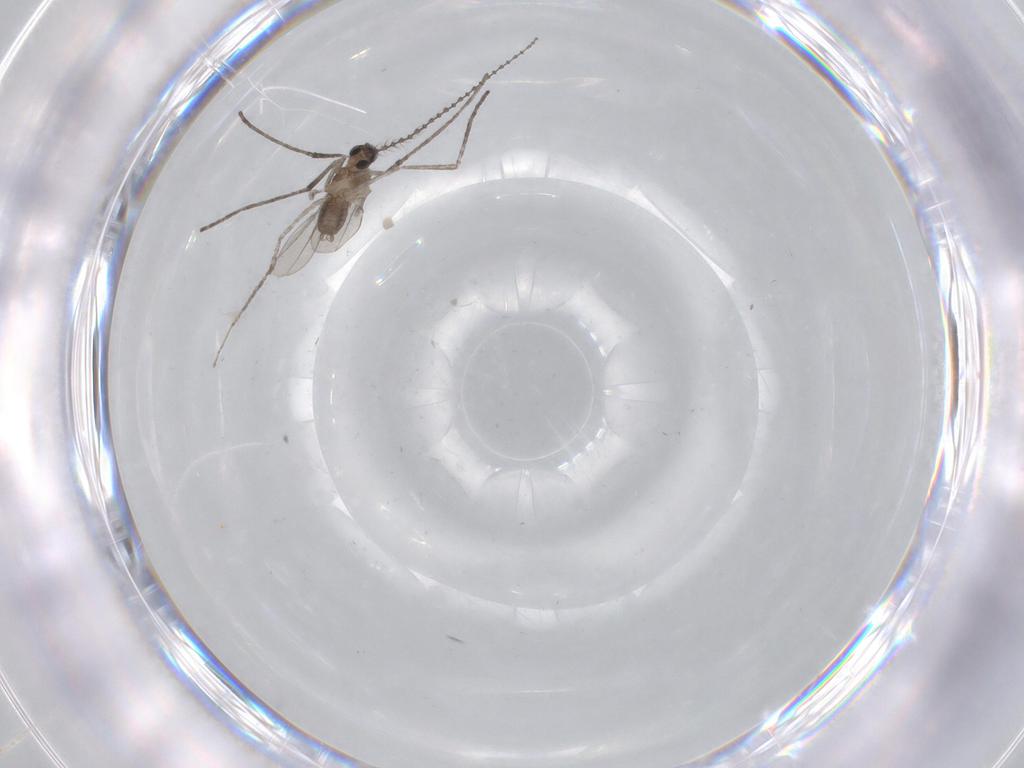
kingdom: Animalia
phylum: Arthropoda
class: Insecta
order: Diptera
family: Cecidomyiidae
